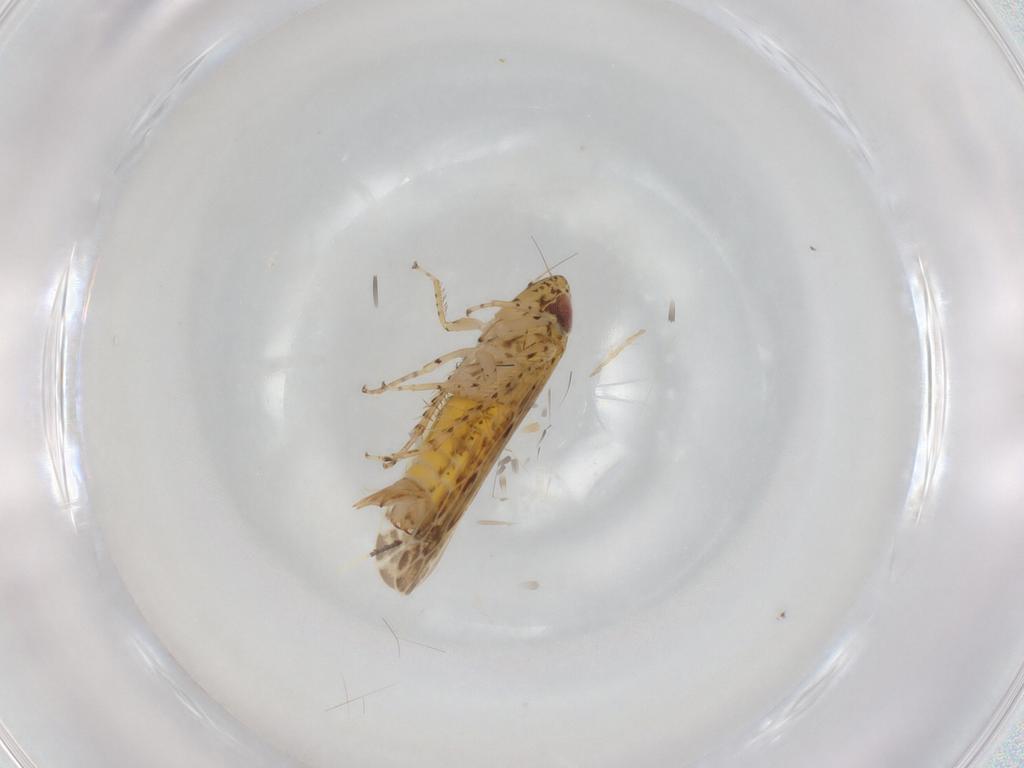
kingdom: Animalia
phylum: Arthropoda
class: Insecta
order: Hemiptera
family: Cicadellidae
